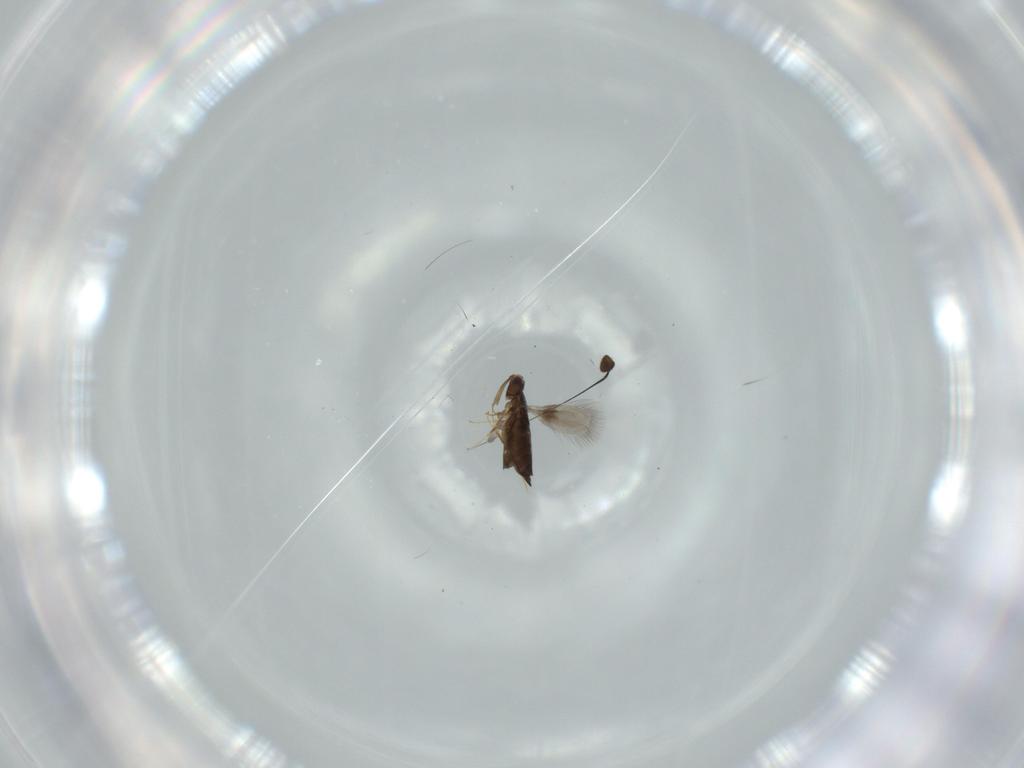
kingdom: Animalia
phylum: Arthropoda
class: Insecta
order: Hymenoptera
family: Signiphoridae
